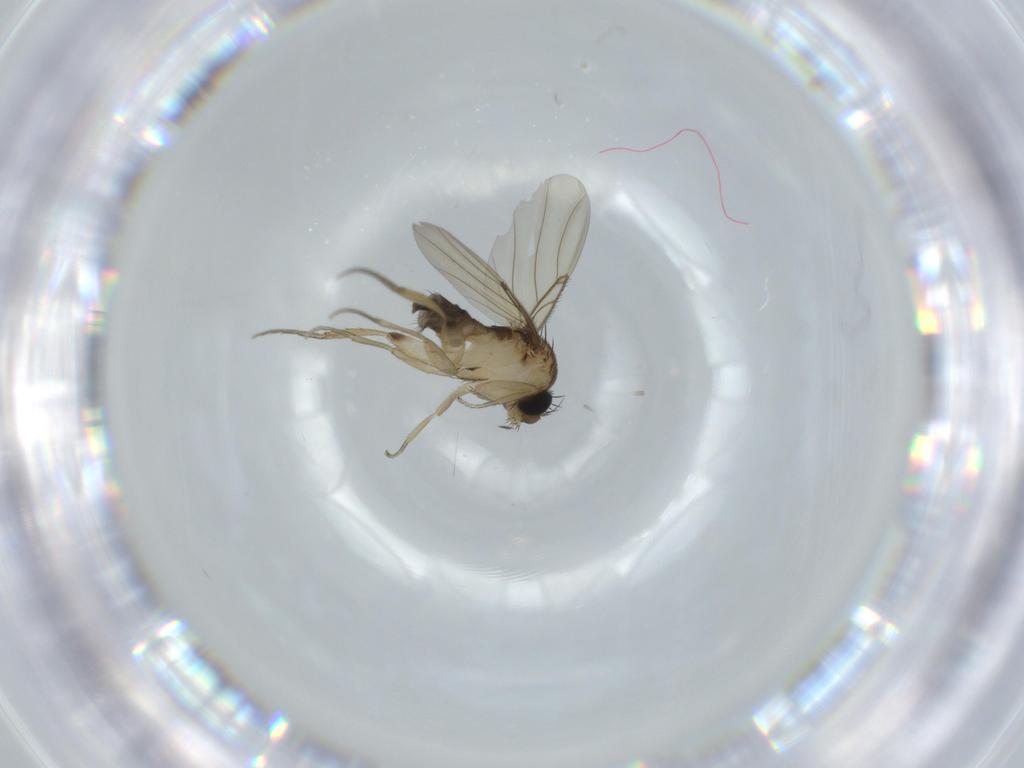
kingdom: Animalia
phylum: Arthropoda
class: Insecta
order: Diptera
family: Phoridae
